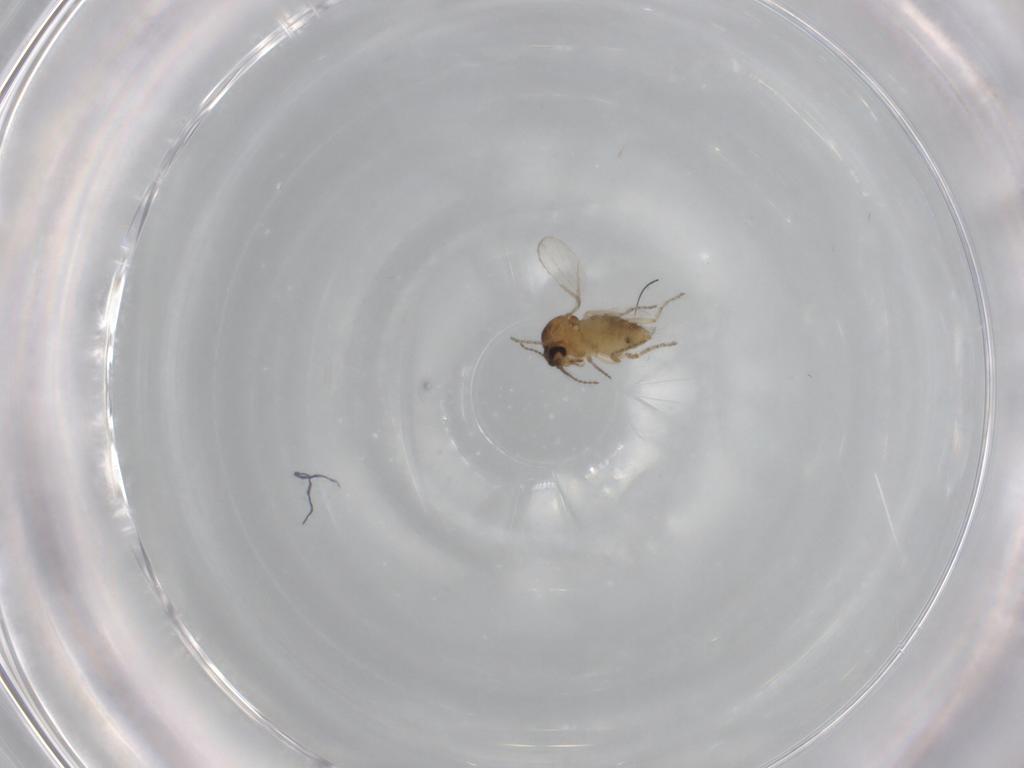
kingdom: Animalia
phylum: Arthropoda
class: Insecta
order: Diptera
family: Ceratopogonidae
